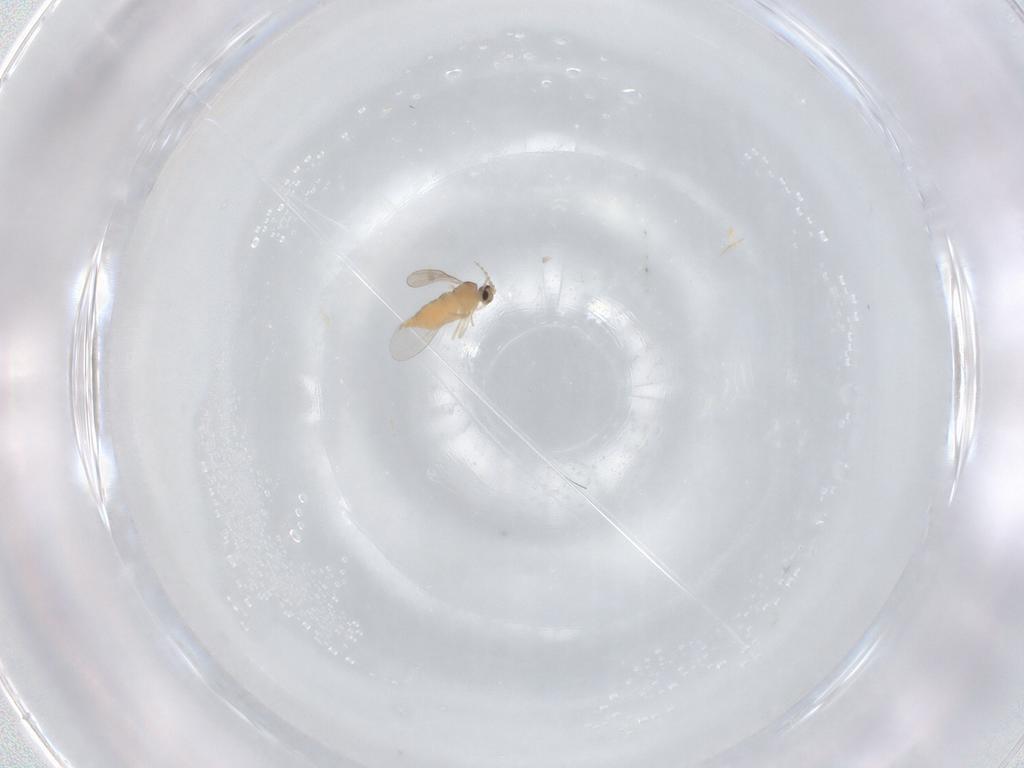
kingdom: Animalia
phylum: Arthropoda
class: Insecta
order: Diptera
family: Cecidomyiidae
